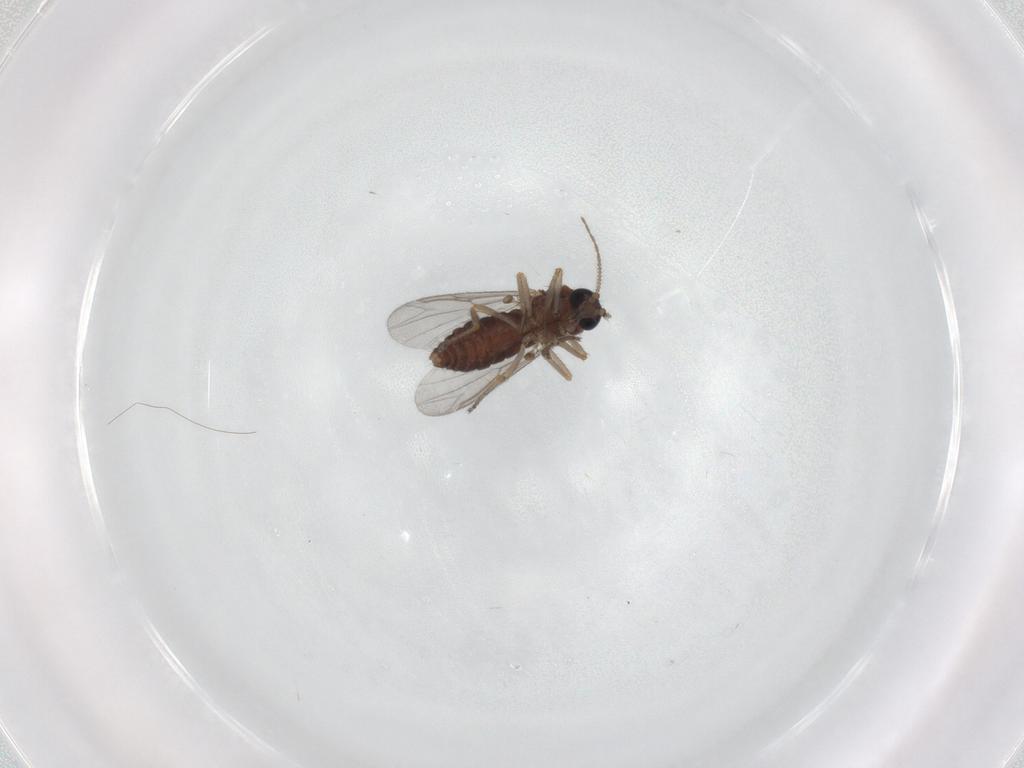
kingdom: Animalia
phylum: Arthropoda
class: Insecta
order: Diptera
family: Ceratopogonidae
